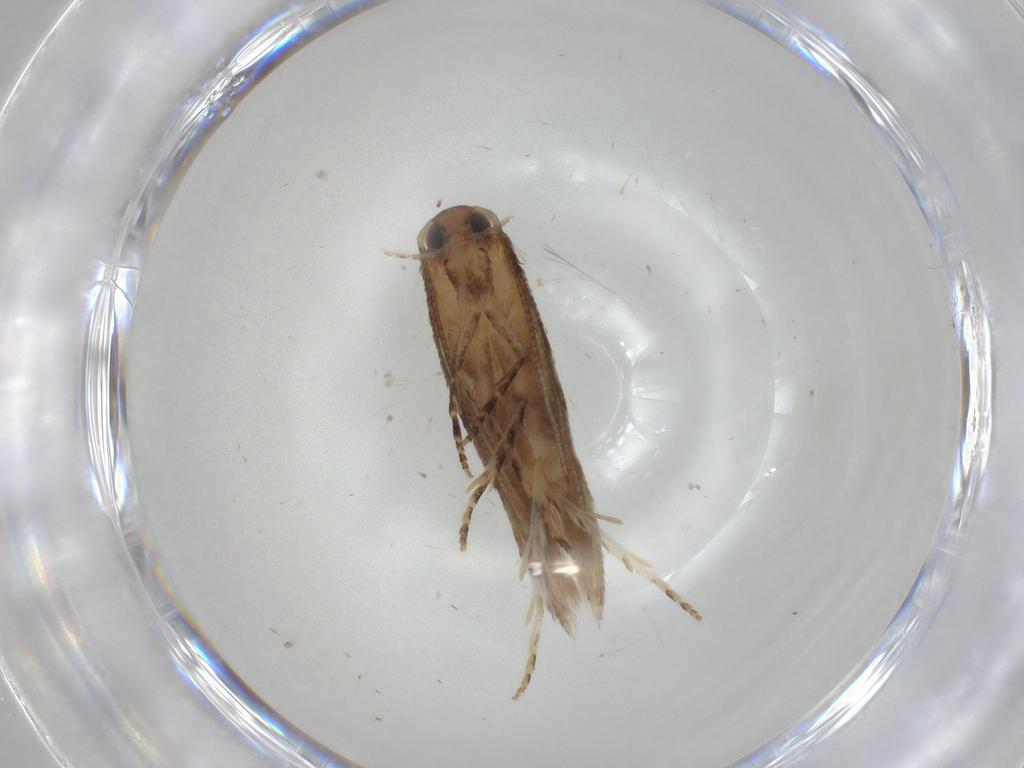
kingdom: Animalia
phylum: Arthropoda
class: Insecta
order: Lepidoptera
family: Gelechiidae
